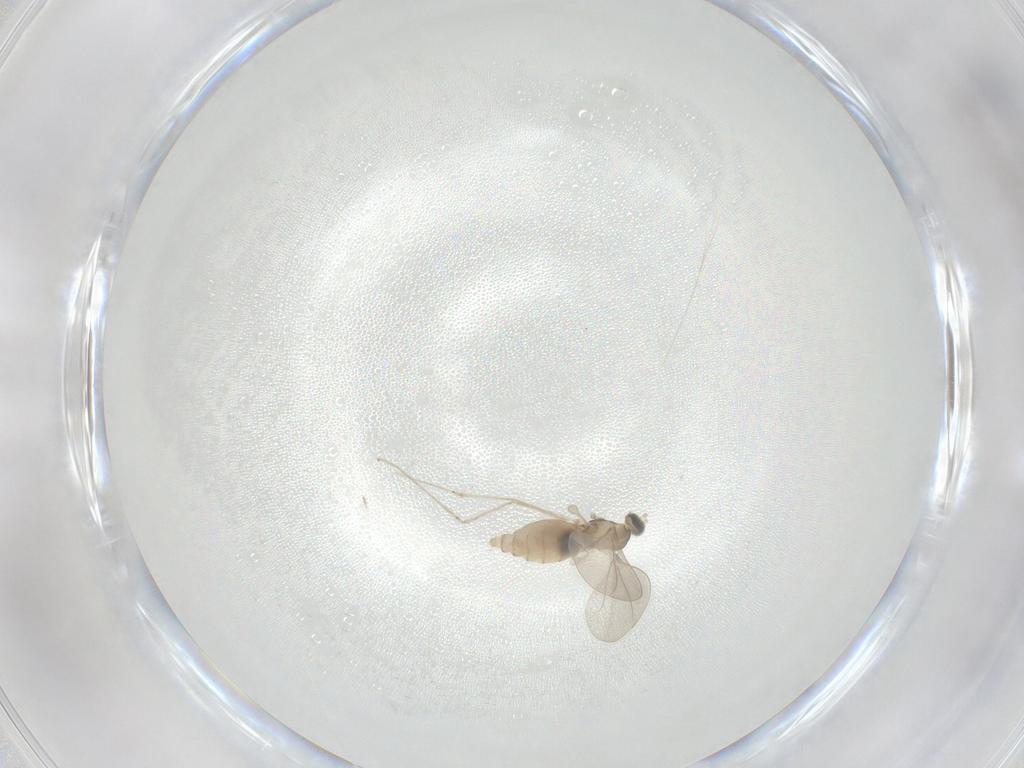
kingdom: Animalia
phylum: Arthropoda
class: Insecta
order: Diptera
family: Cecidomyiidae
